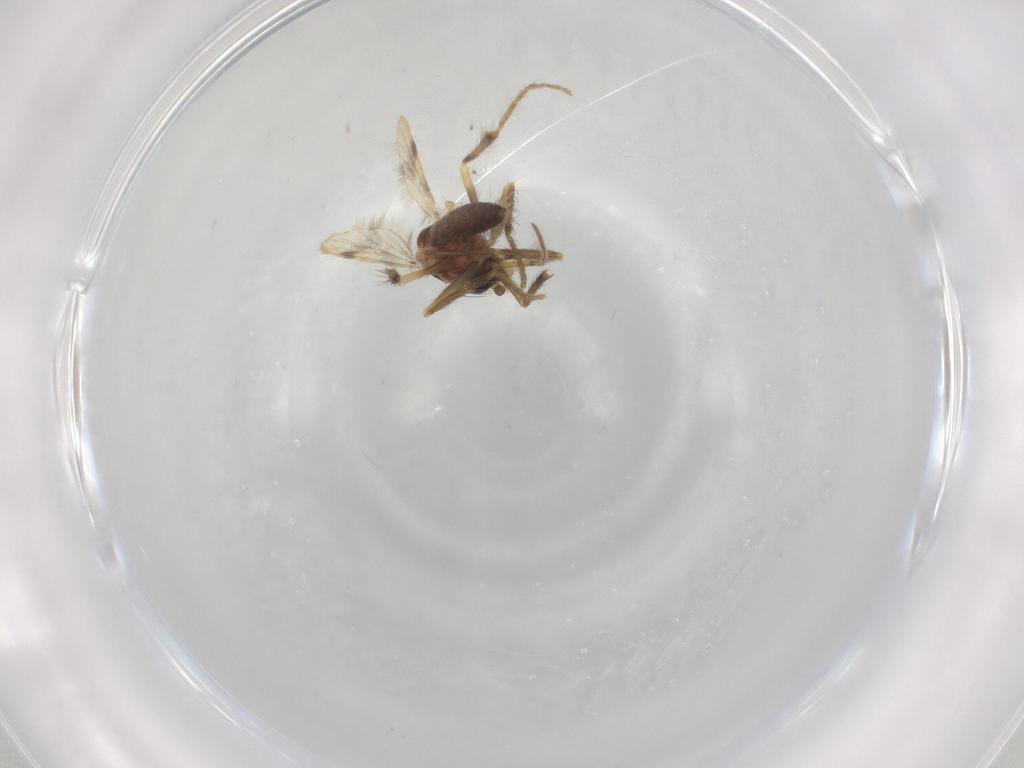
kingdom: Animalia
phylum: Arthropoda
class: Insecta
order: Diptera
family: Corethrellidae
